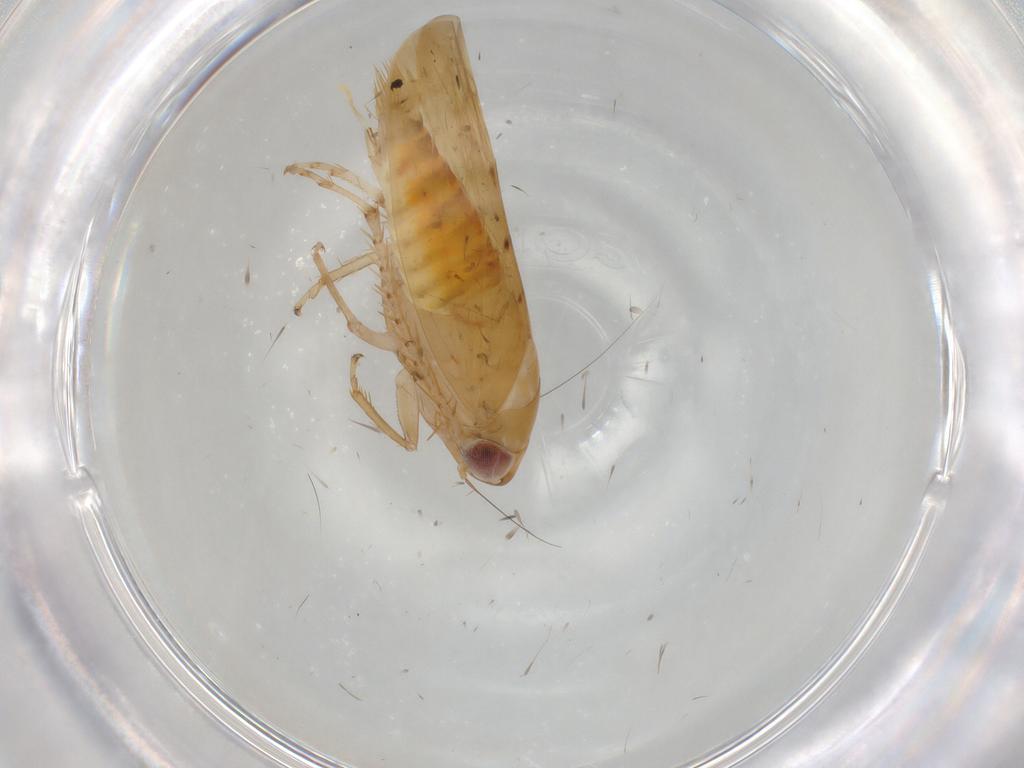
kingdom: Animalia
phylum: Arthropoda
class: Insecta
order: Hemiptera
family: Cicadellidae
